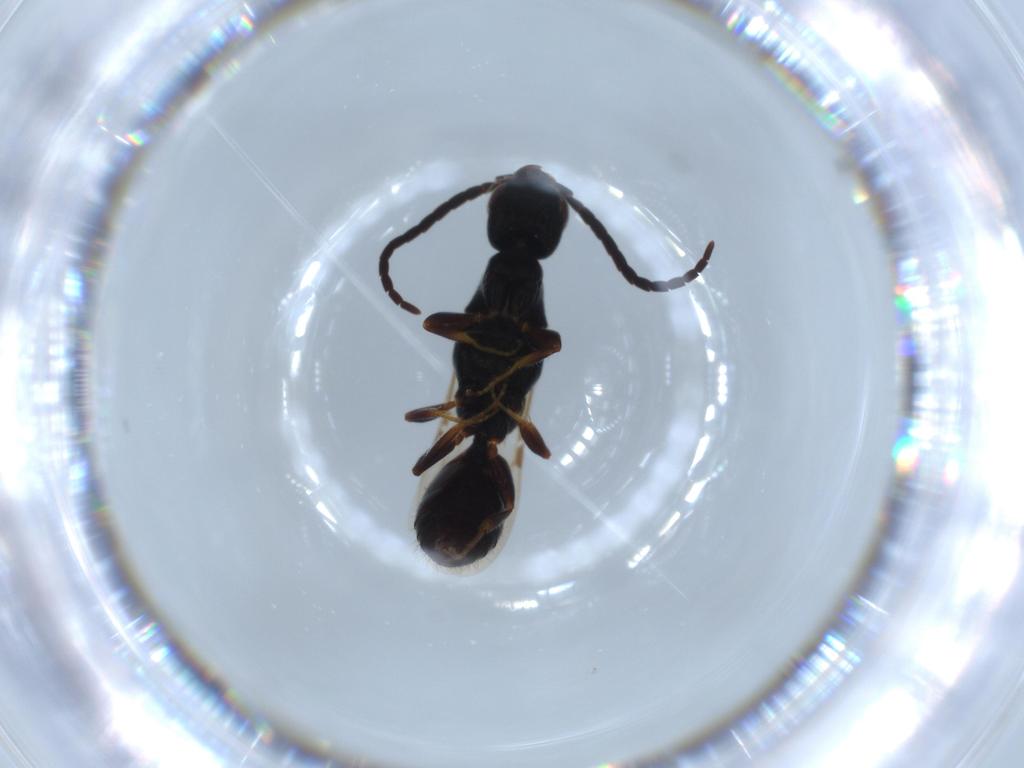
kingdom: Animalia
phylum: Arthropoda
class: Insecta
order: Hymenoptera
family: Bethylidae
